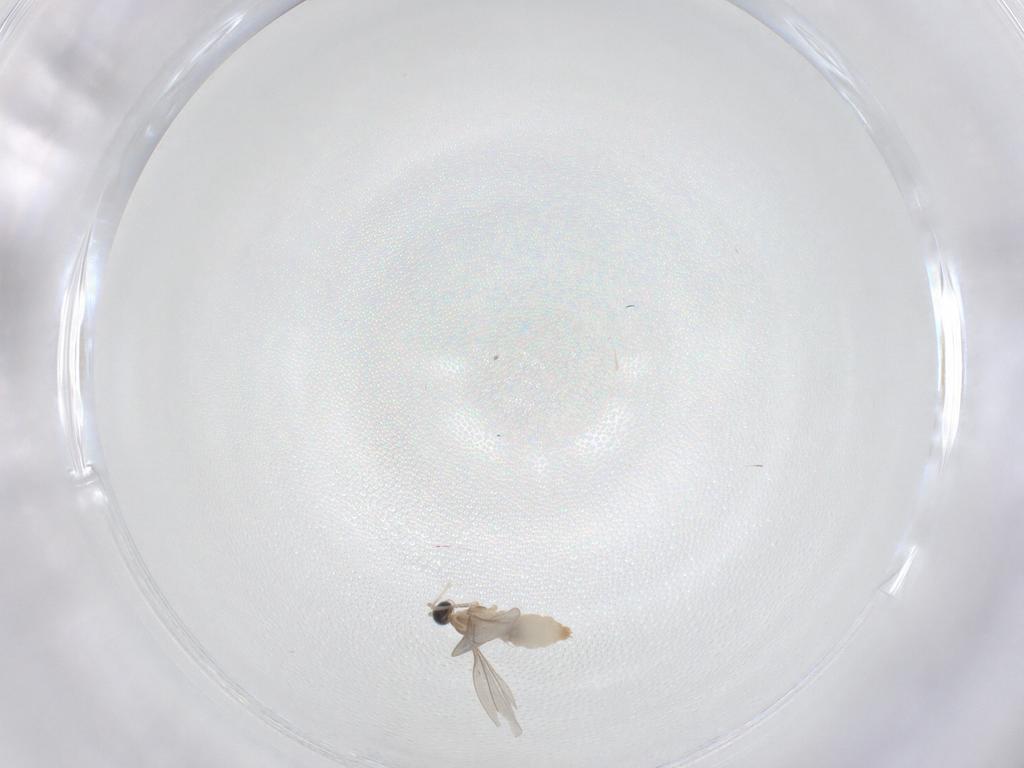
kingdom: Animalia
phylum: Arthropoda
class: Insecta
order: Diptera
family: Cecidomyiidae
